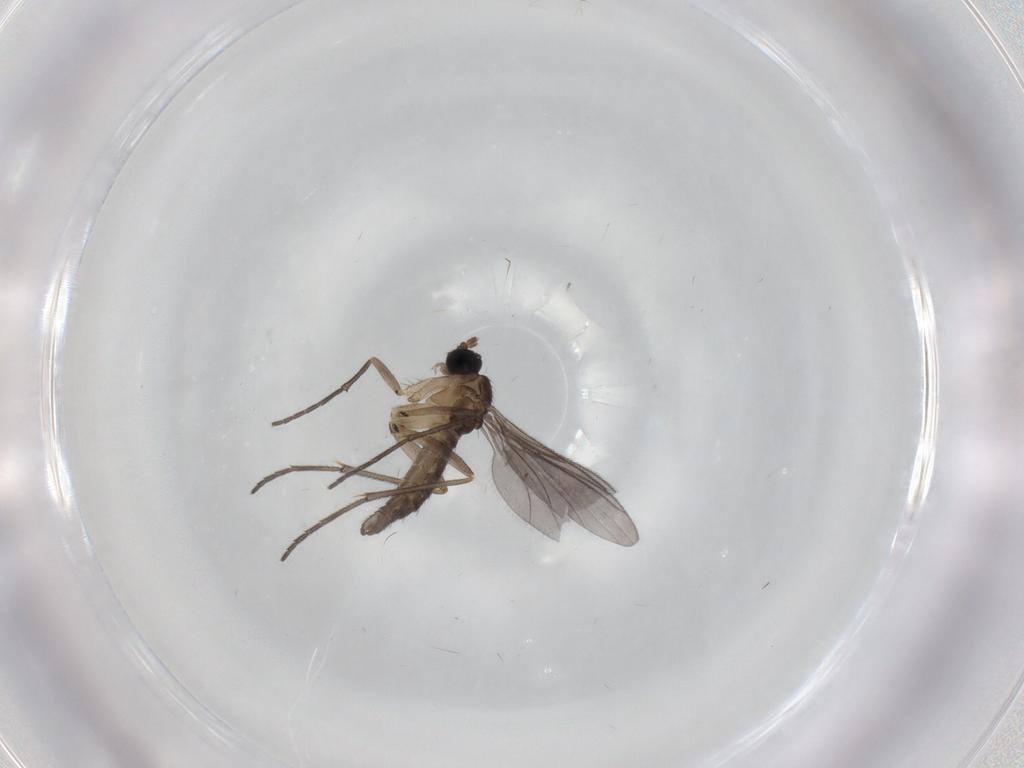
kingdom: Animalia
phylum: Arthropoda
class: Insecta
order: Diptera
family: Sciaridae
